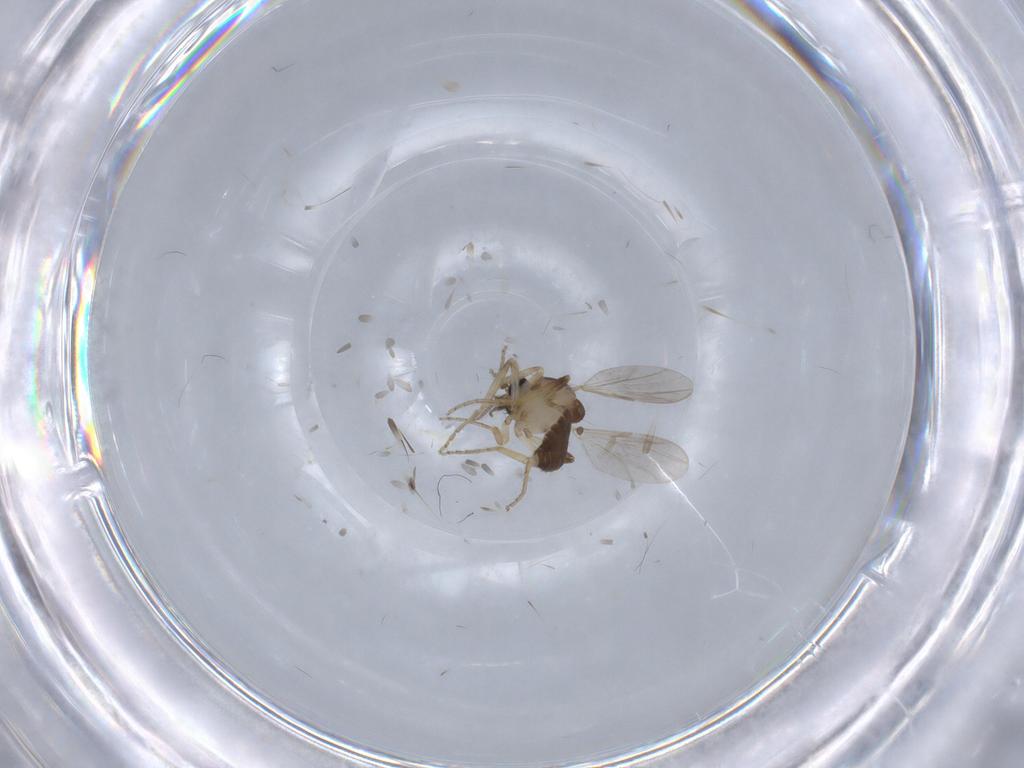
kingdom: Animalia
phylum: Arthropoda
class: Insecta
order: Diptera
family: Ceratopogonidae
